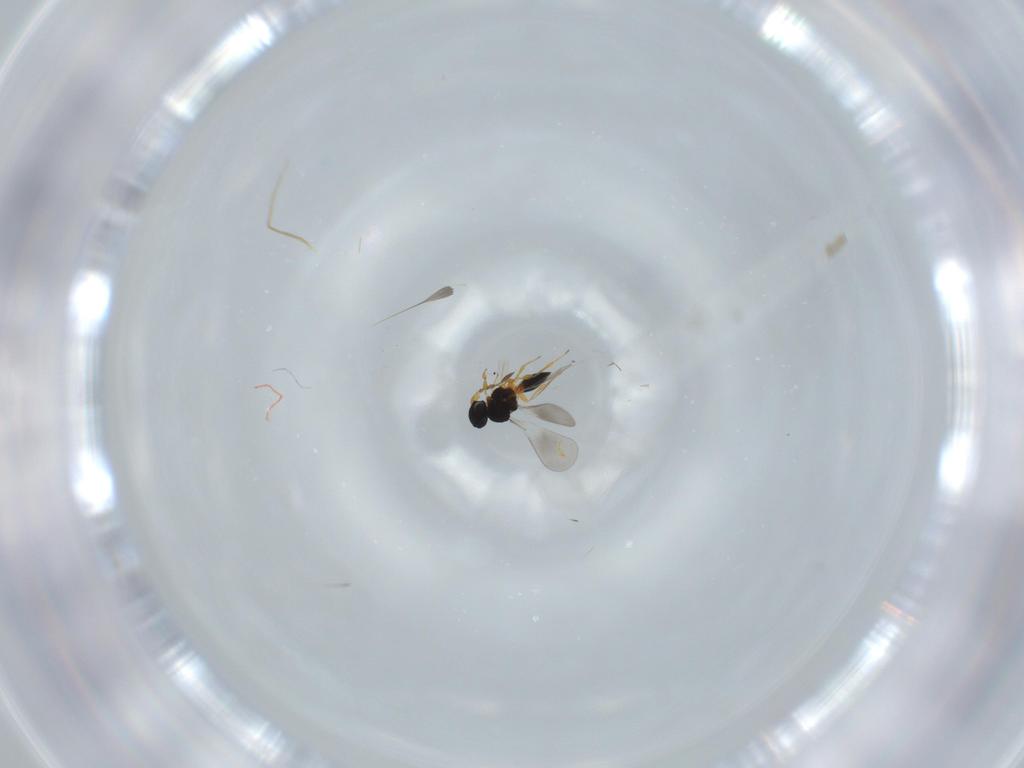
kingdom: Animalia
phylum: Arthropoda
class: Insecta
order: Hymenoptera
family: Platygastridae
